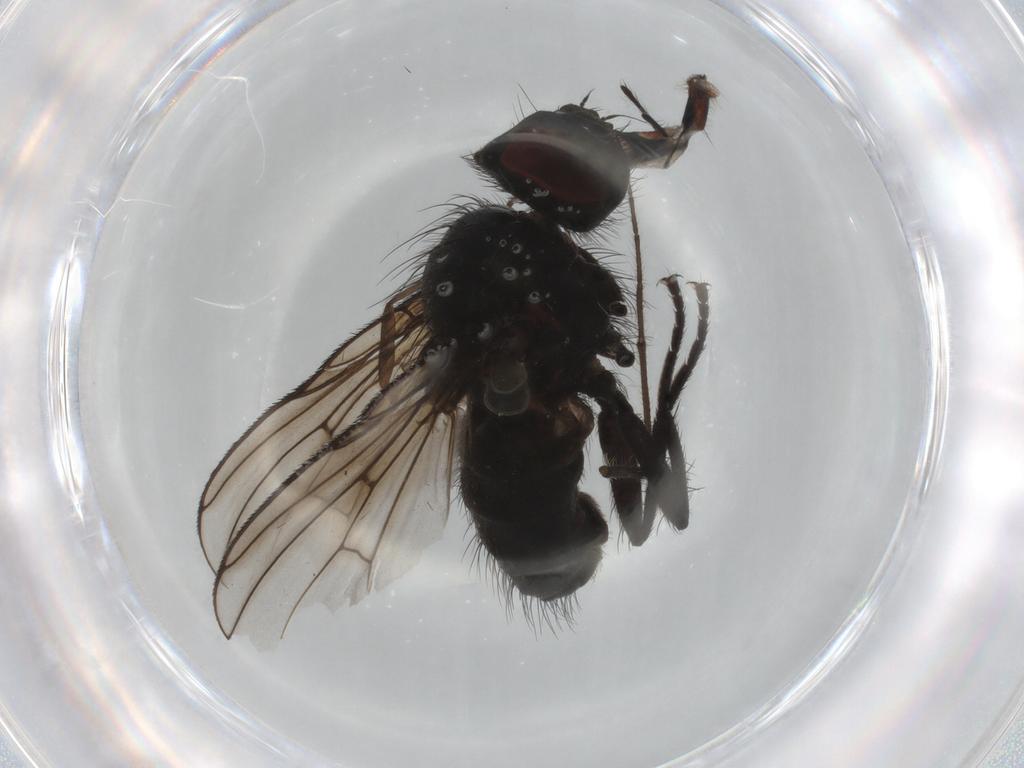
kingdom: Animalia
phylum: Arthropoda
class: Insecta
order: Diptera
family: Muscidae
